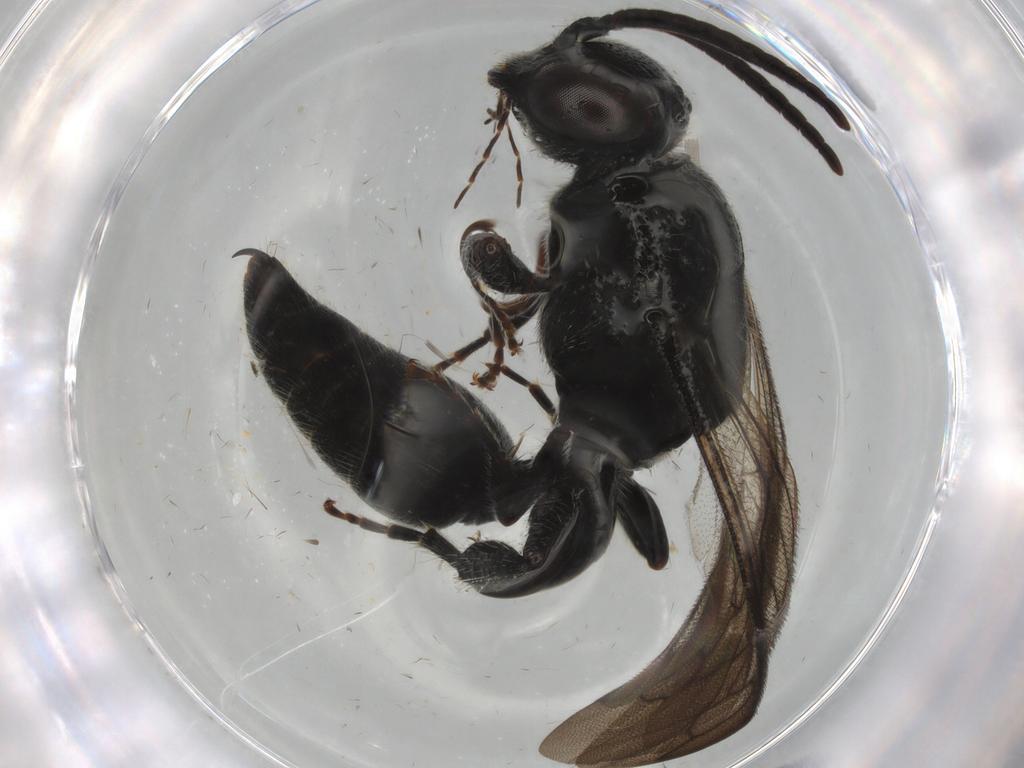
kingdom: Animalia
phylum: Arthropoda
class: Insecta
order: Hymenoptera
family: Tiphiidae
